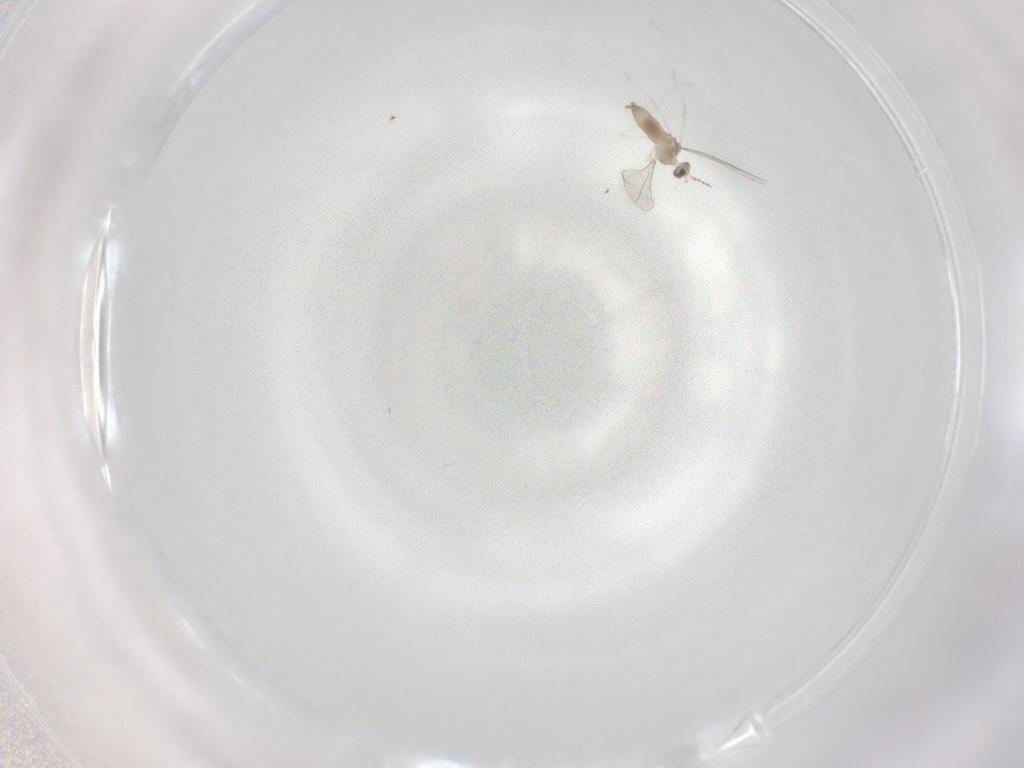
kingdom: Animalia
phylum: Arthropoda
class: Insecta
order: Diptera
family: Cecidomyiidae
